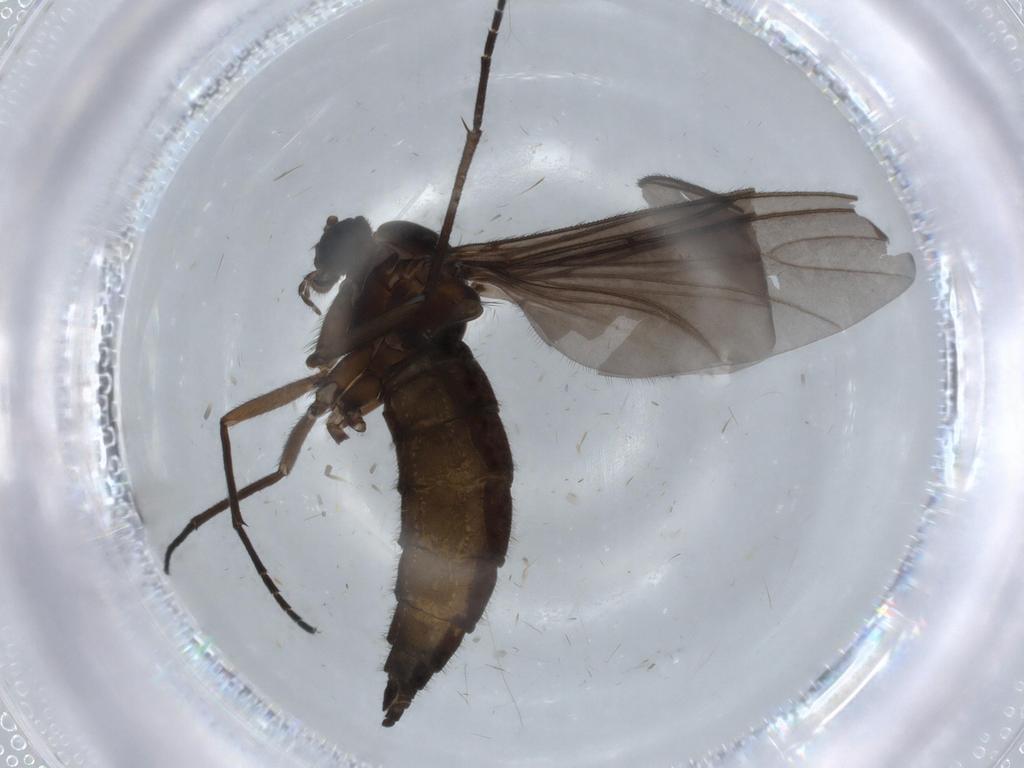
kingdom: Animalia
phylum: Arthropoda
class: Insecta
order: Diptera
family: Sciaridae
